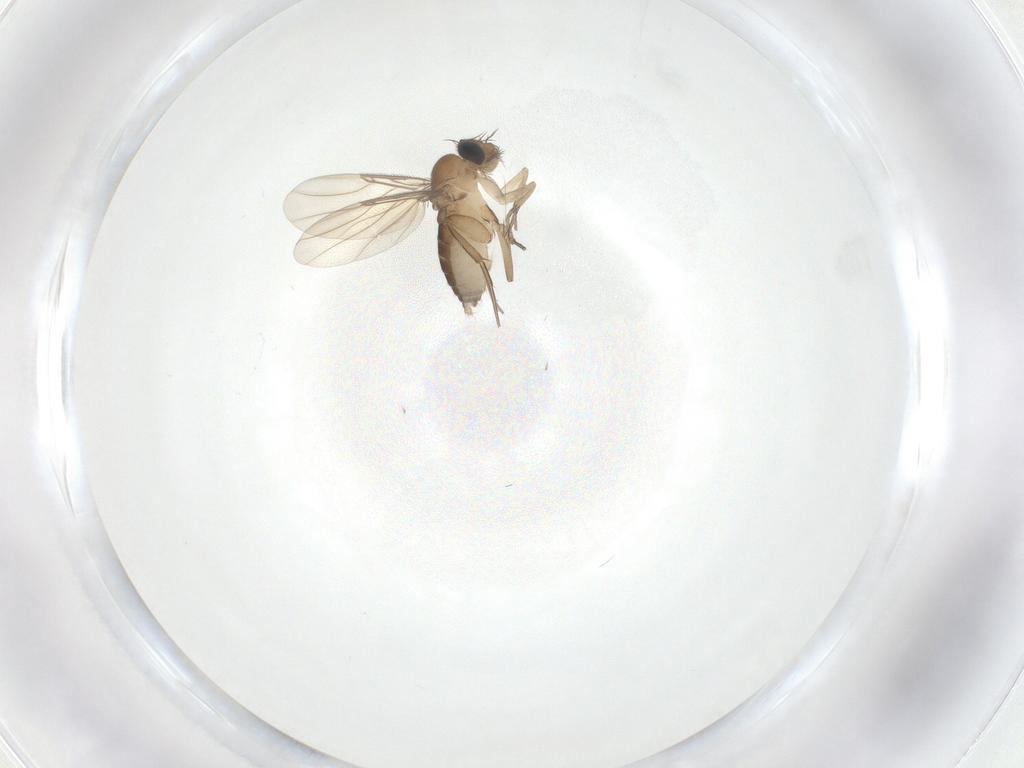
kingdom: Animalia
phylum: Arthropoda
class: Insecta
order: Diptera
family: Phoridae
